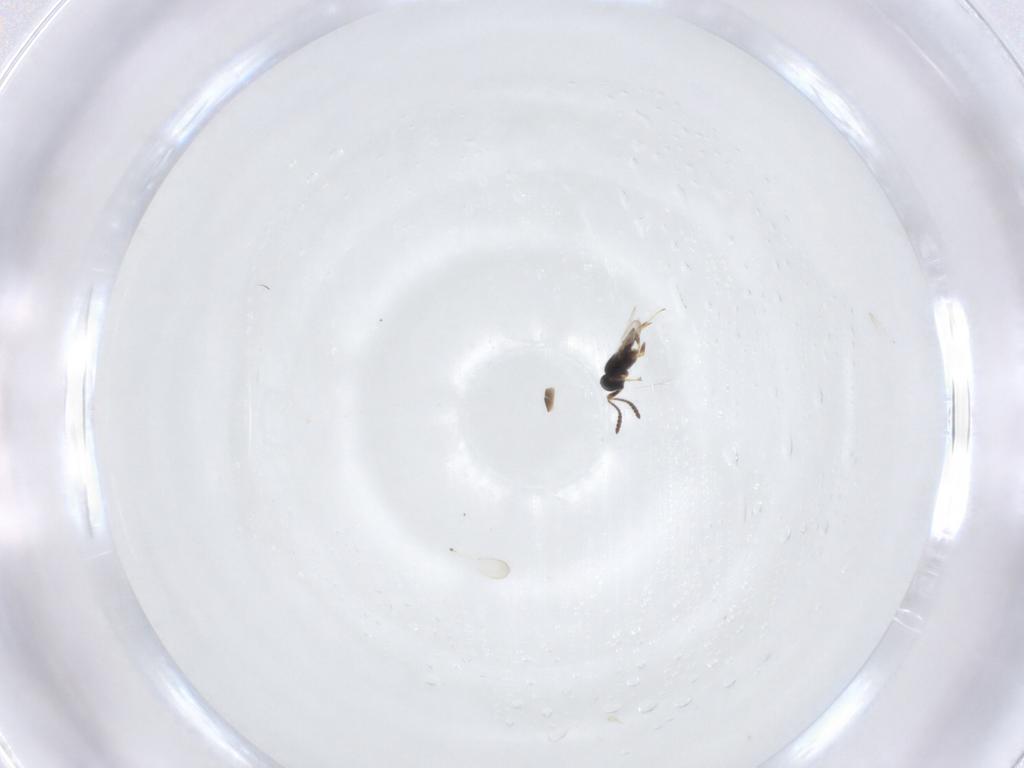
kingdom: Animalia
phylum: Arthropoda
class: Insecta
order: Hymenoptera
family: Scelionidae
